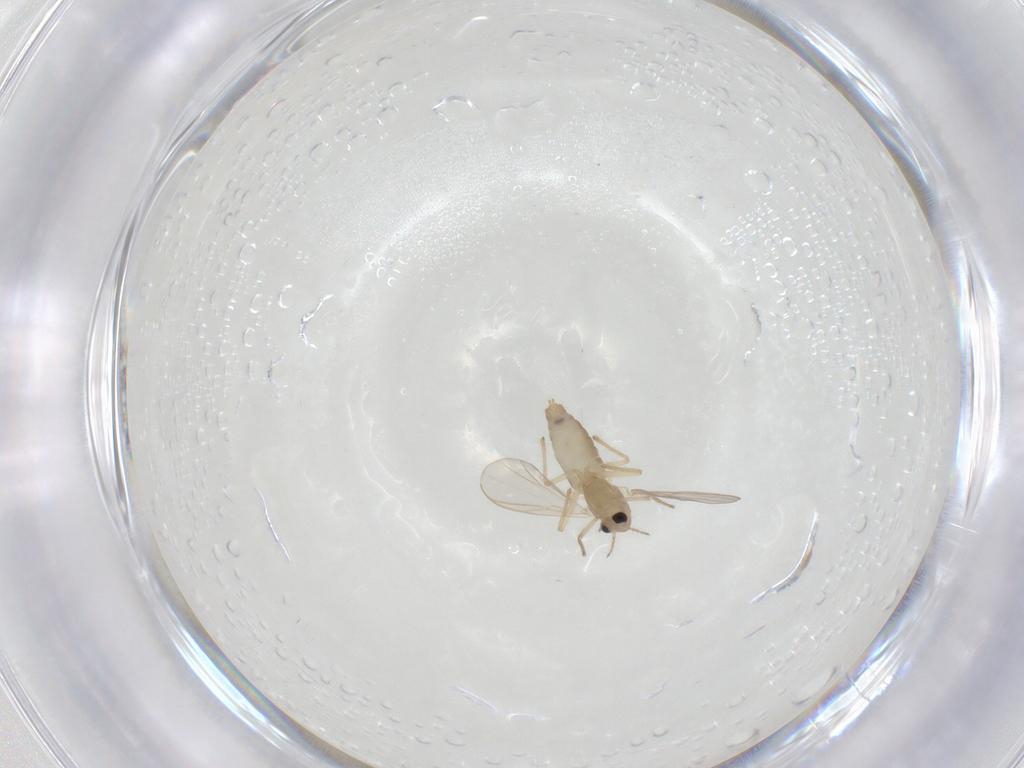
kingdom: Animalia
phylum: Arthropoda
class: Insecta
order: Diptera
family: Chironomidae
